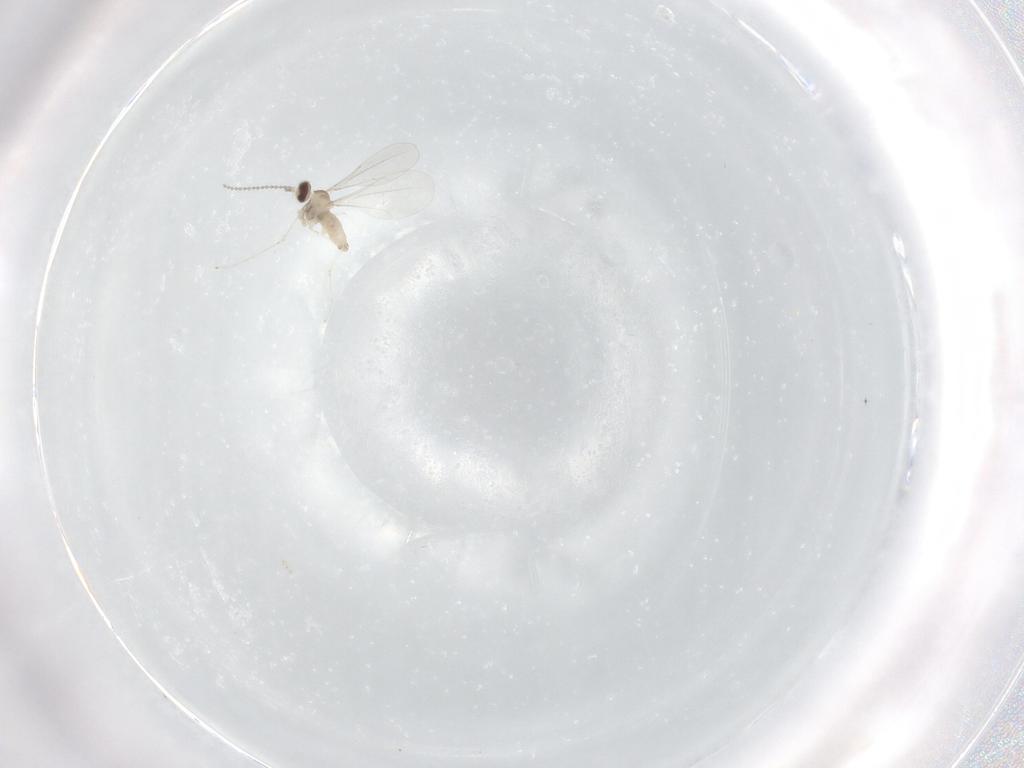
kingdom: Animalia
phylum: Arthropoda
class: Insecta
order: Diptera
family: Cecidomyiidae
